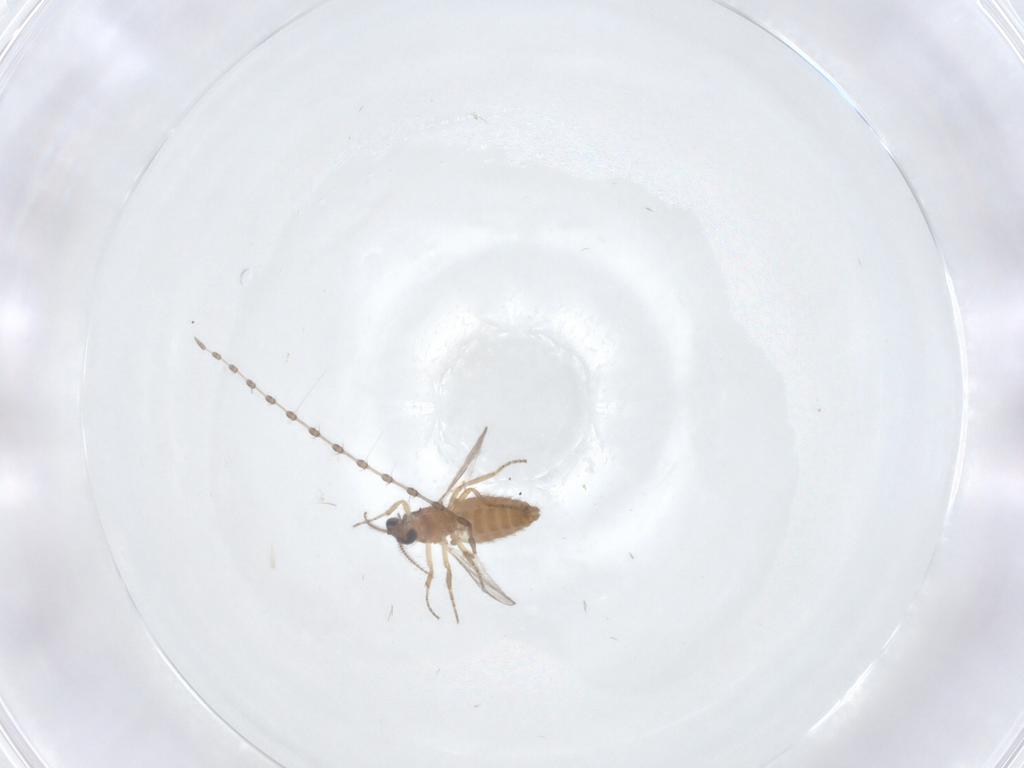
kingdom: Animalia
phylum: Arthropoda
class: Insecta
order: Diptera
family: Ceratopogonidae
